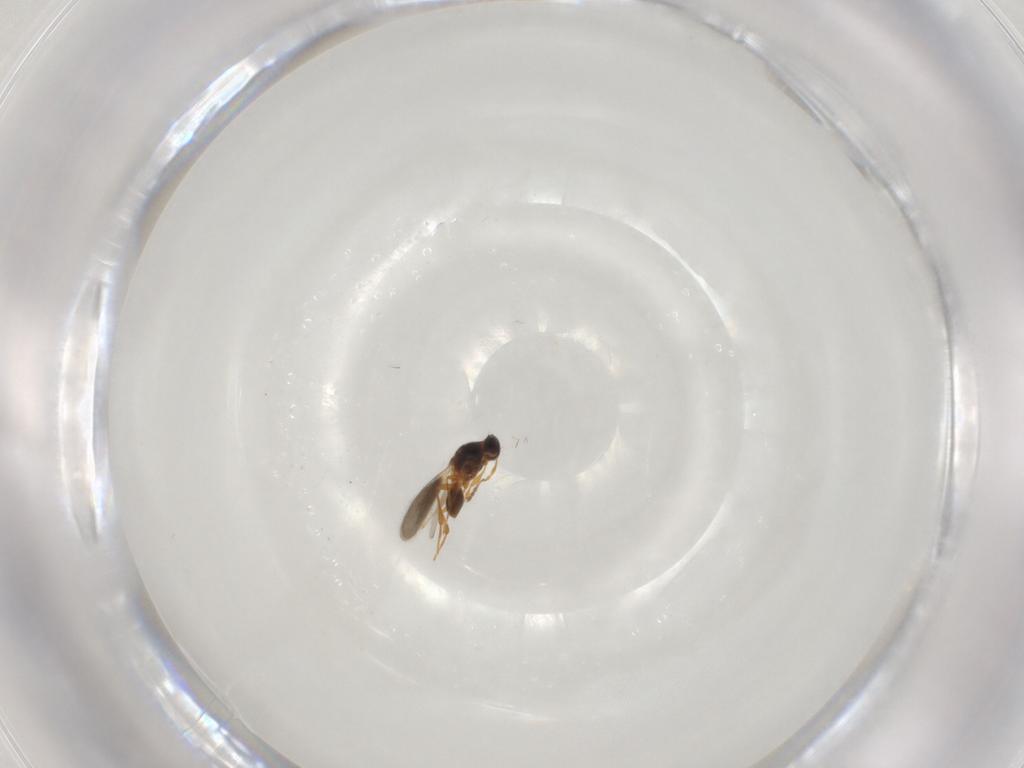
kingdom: Animalia
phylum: Arthropoda
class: Insecta
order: Hymenoptera
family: Platygastridae
